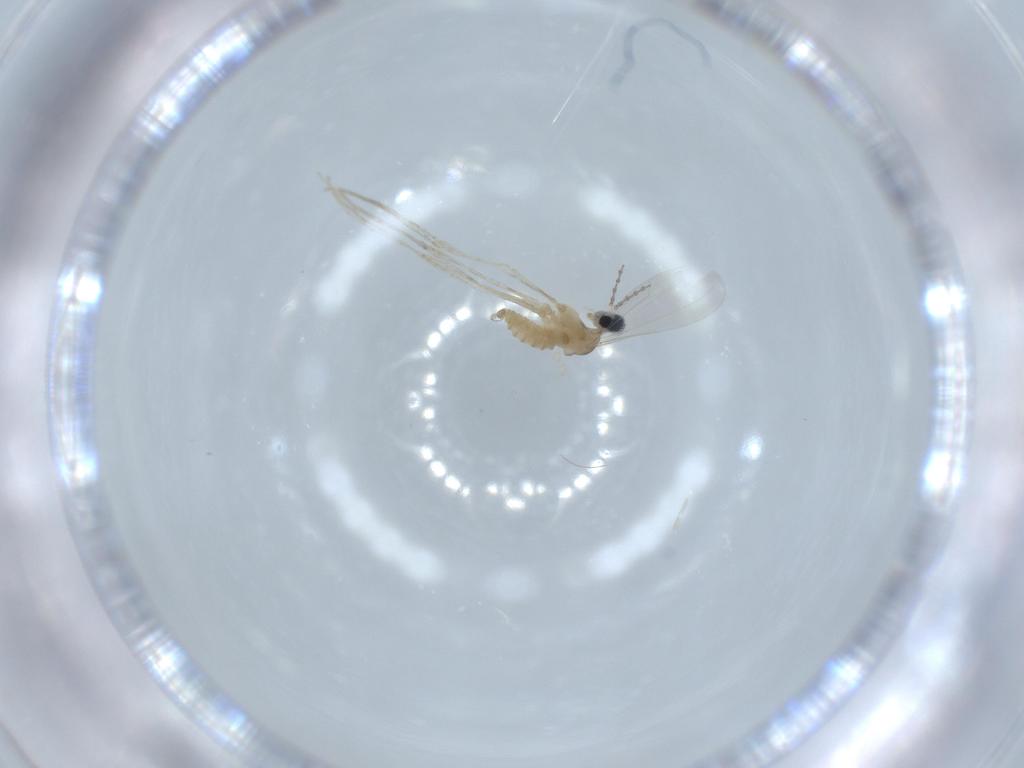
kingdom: Animalia
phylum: Arthropoda
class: Insecta
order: Diptera
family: Cecidomyiidae
